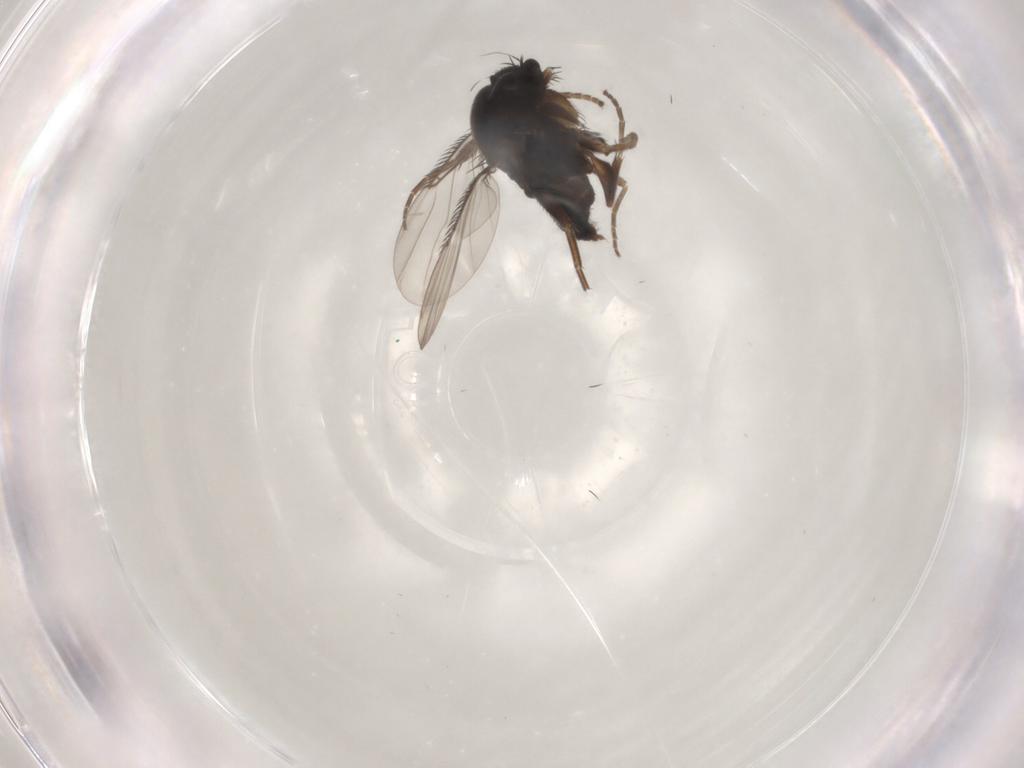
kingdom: Animalia
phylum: Arthropoda
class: Insecta
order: Diptera
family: Phoridae
